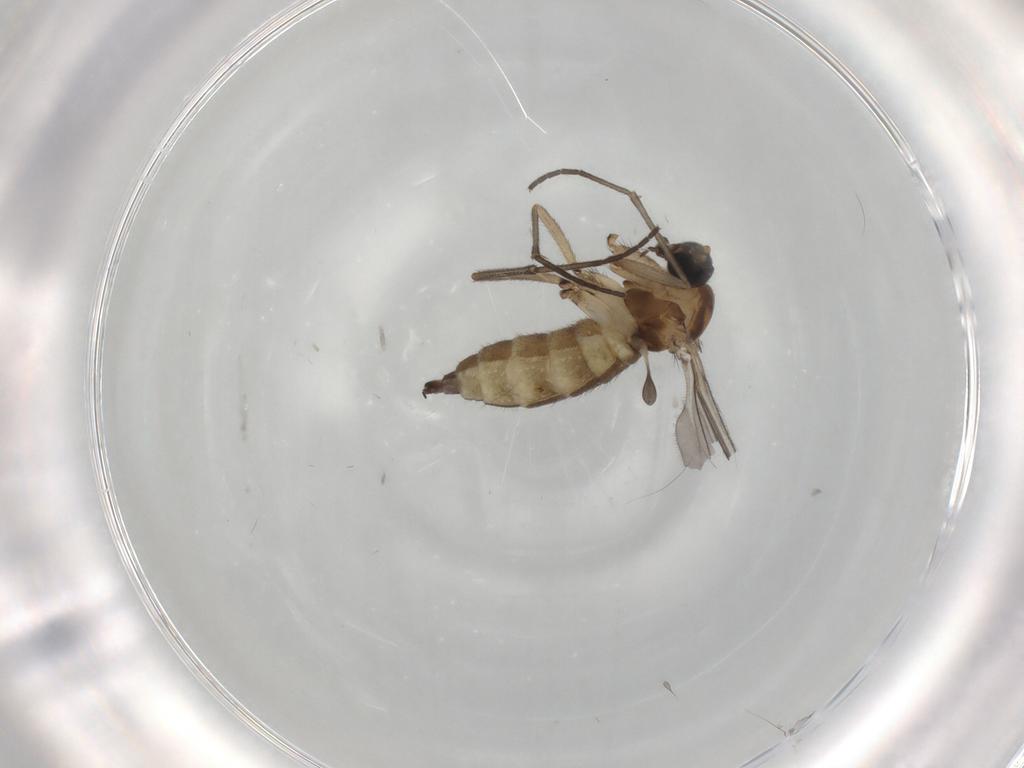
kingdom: Animalia
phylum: Arthropoda
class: Insecta
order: Diptera
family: Sciaridae
